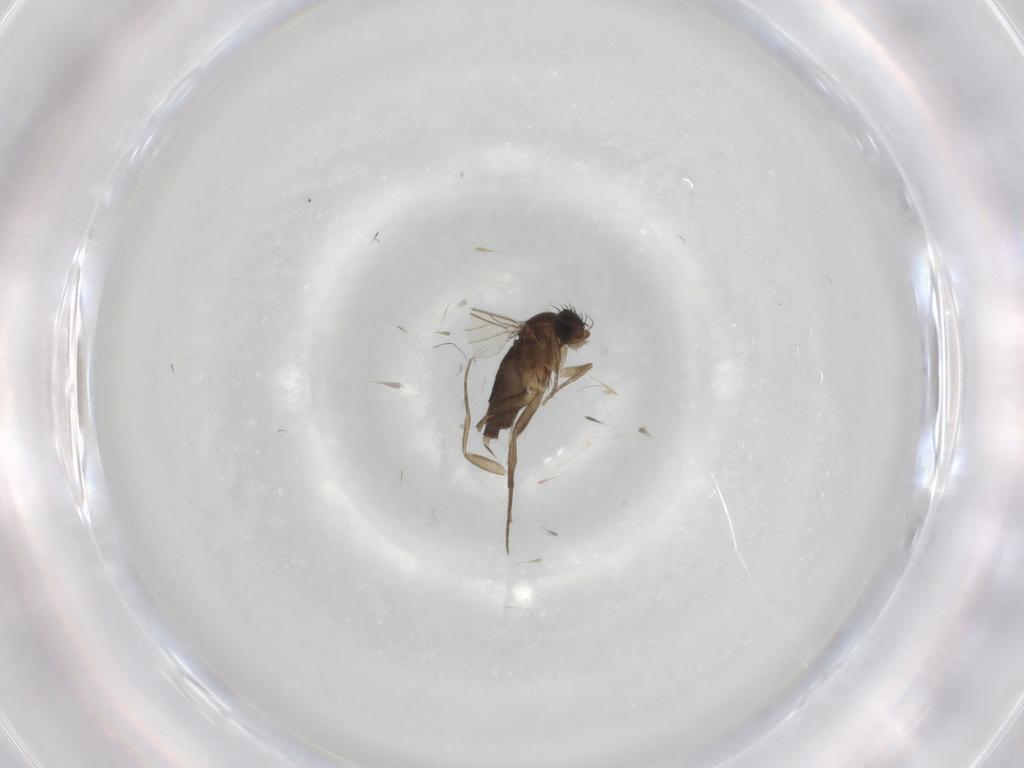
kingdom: Animalia
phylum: Arthropoda
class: Insecta
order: Diptera
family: Phoridae
